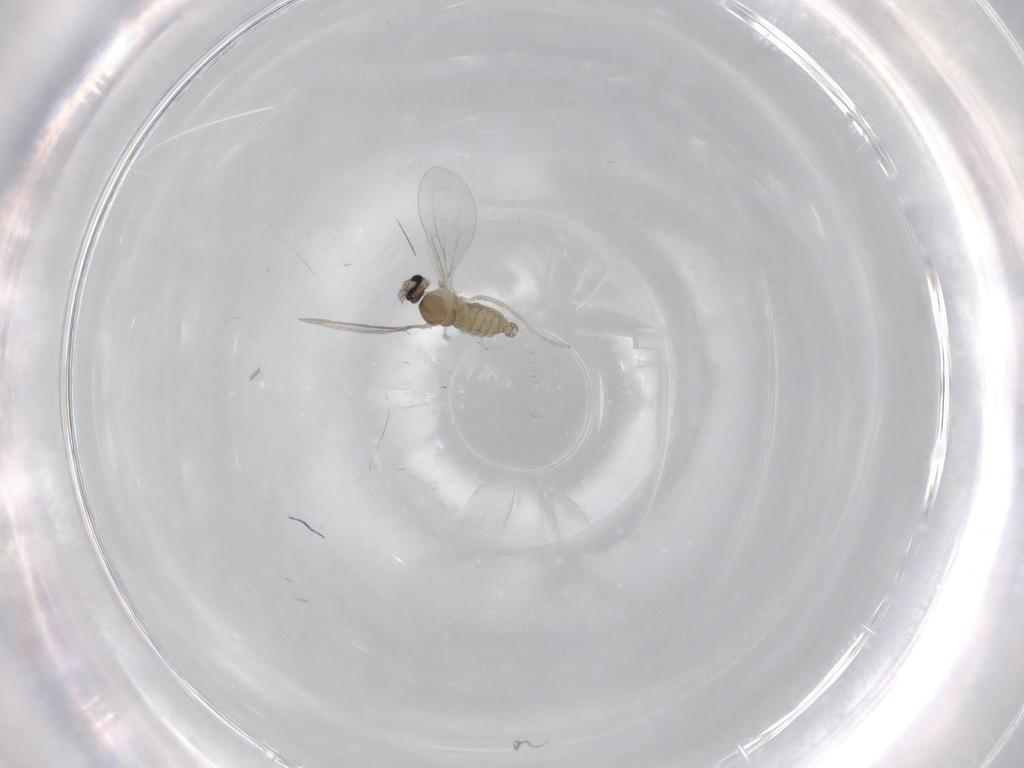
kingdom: Animalia
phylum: Arthropoda
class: Insecta
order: Diptera
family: Cecidomyiidae
